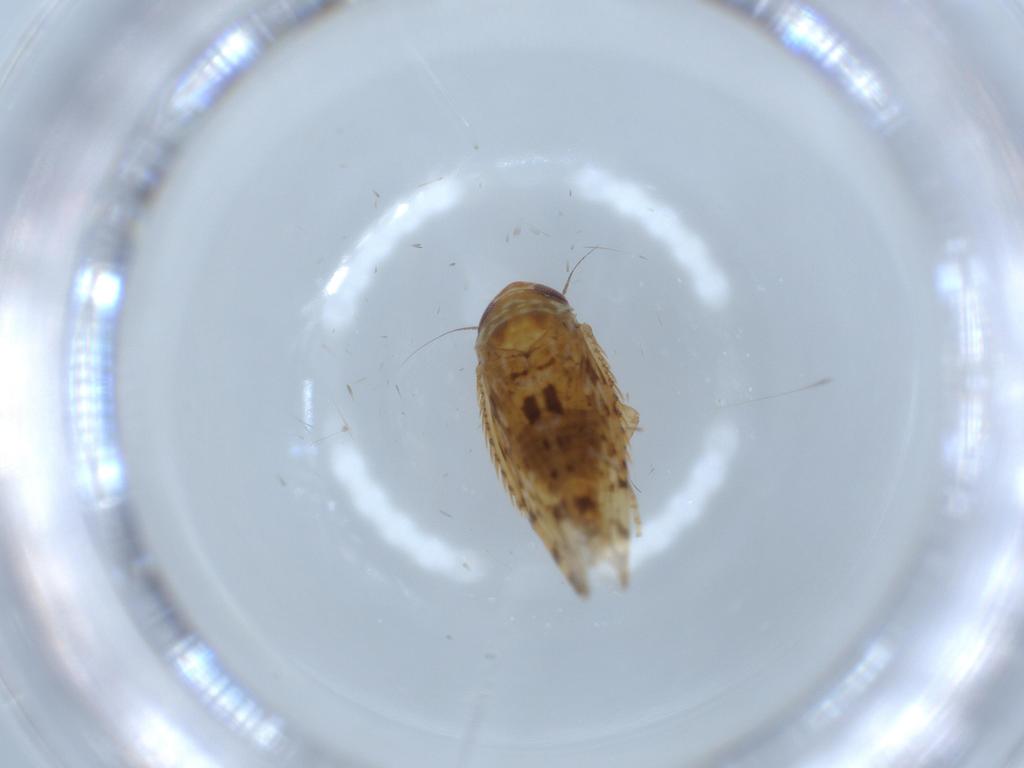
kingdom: Animalia
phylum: Arthropoda
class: Insecta
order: Hemiptera
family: Cicadellidae
